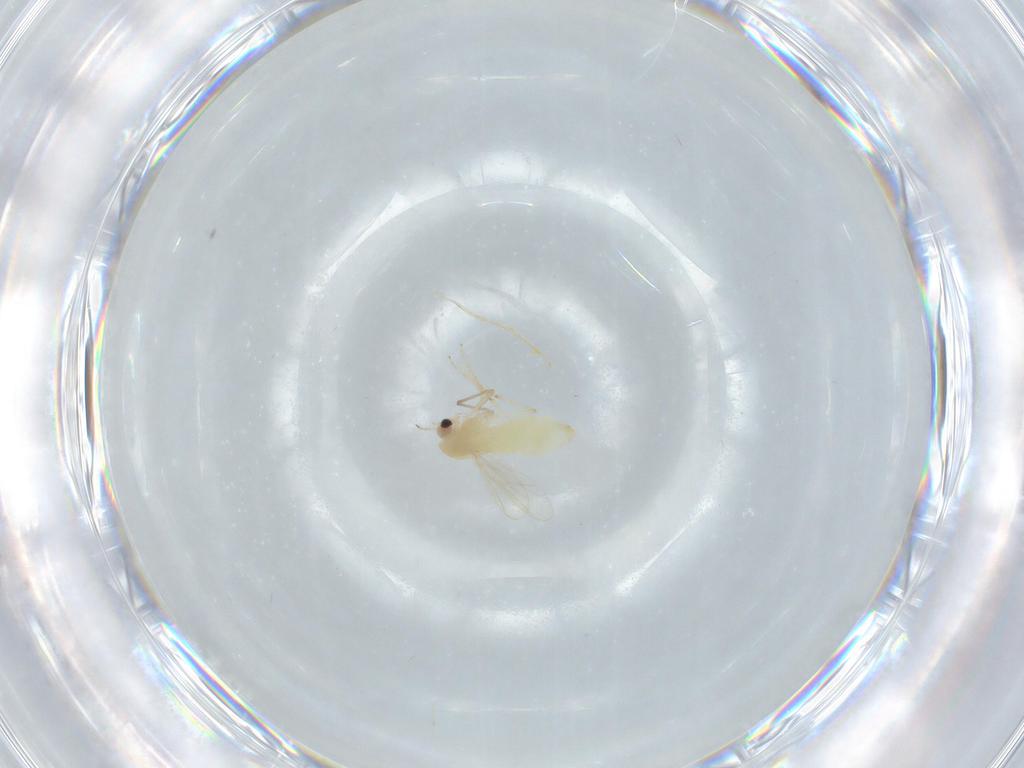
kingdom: Animalia
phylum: Arthropoda
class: Insecta
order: Diptera
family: Chironomidae
